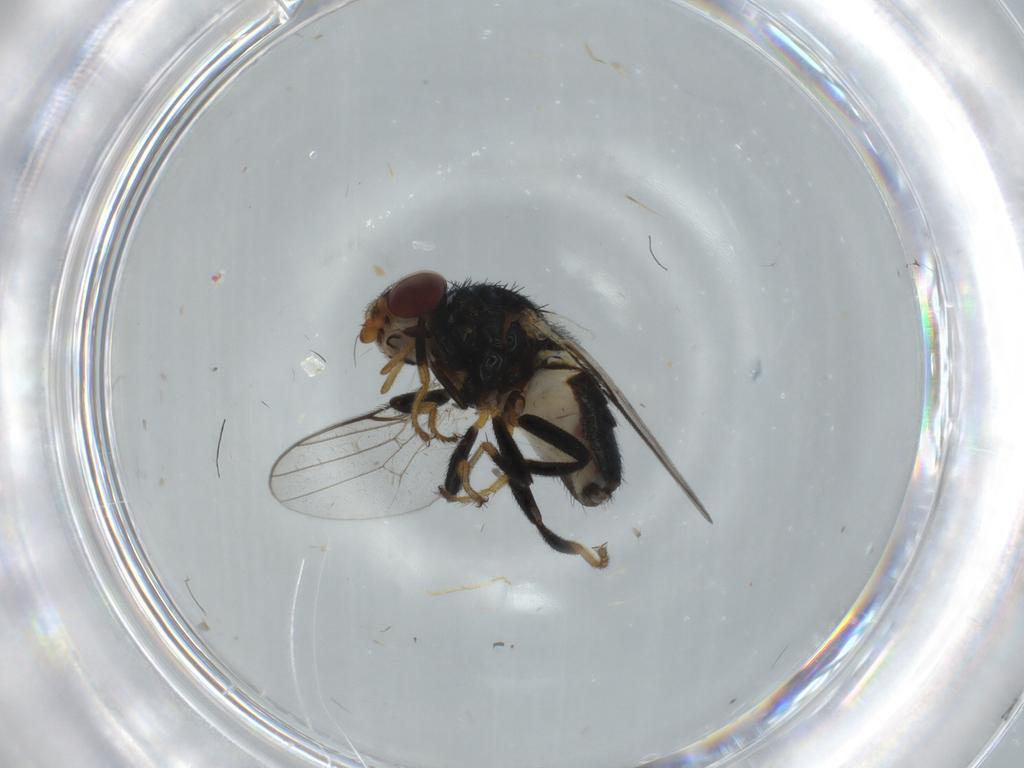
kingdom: Animalia
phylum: Arthropoda
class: Insecta
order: Diptera
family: Chloropidae
